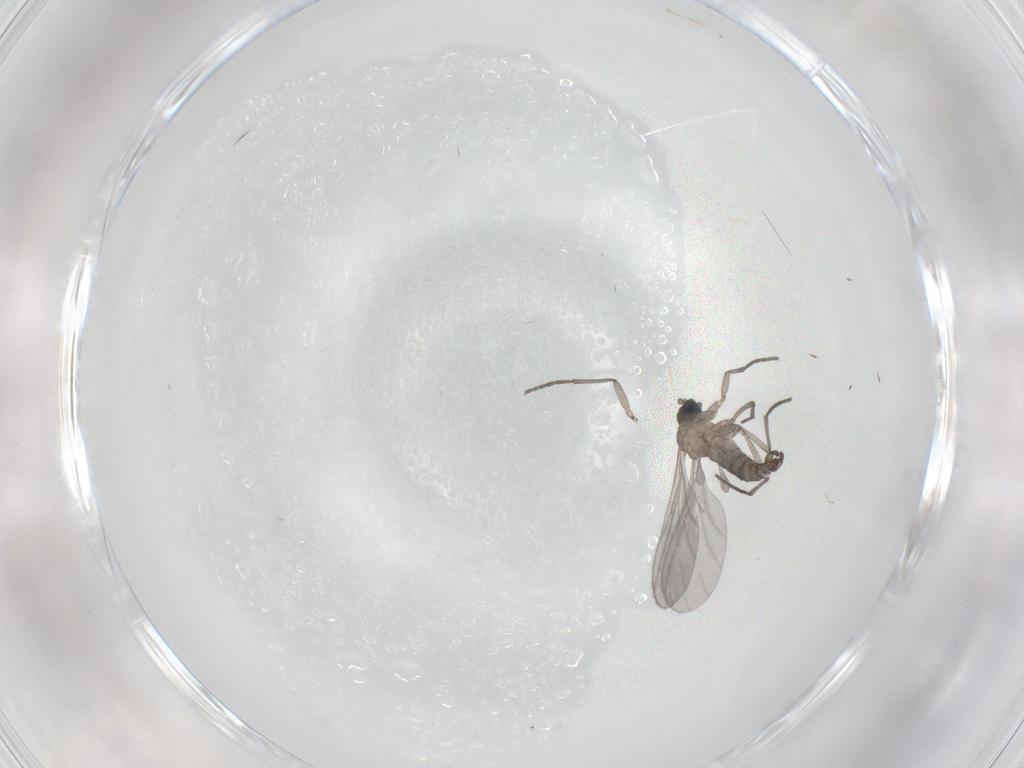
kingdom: Animalia
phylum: Arthropoda
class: Insecta
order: Diptera
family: Sciaridae
